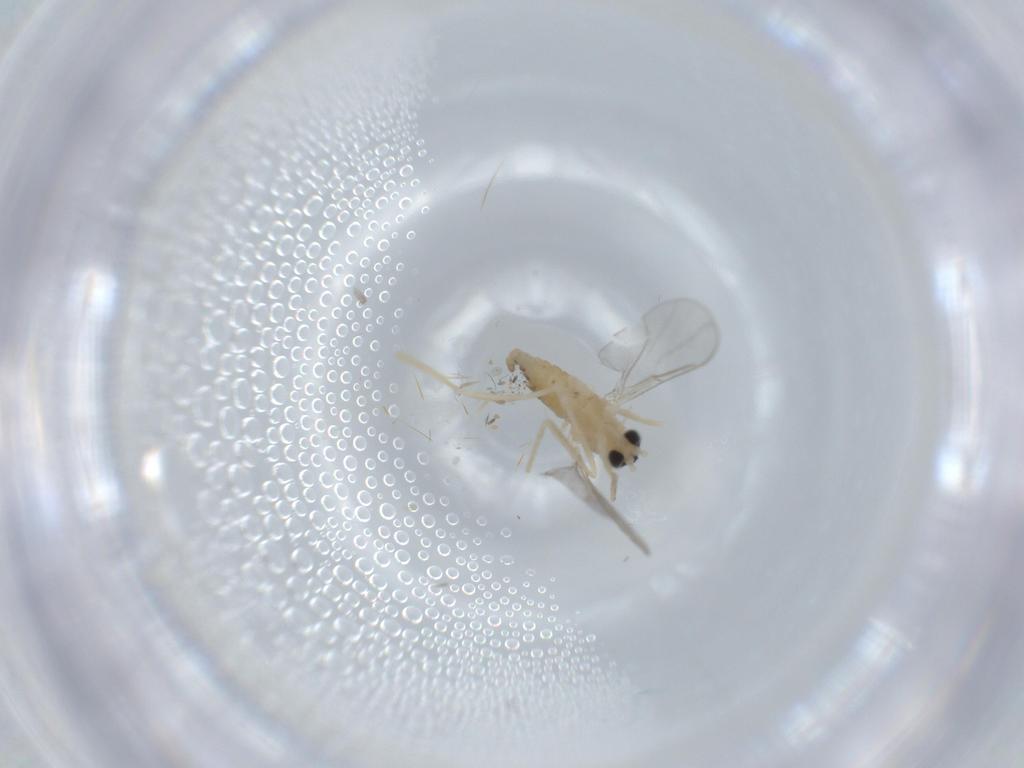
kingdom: Animalia
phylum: Arthropoda
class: Insecta
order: Diptera
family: Cecidomyiidae
